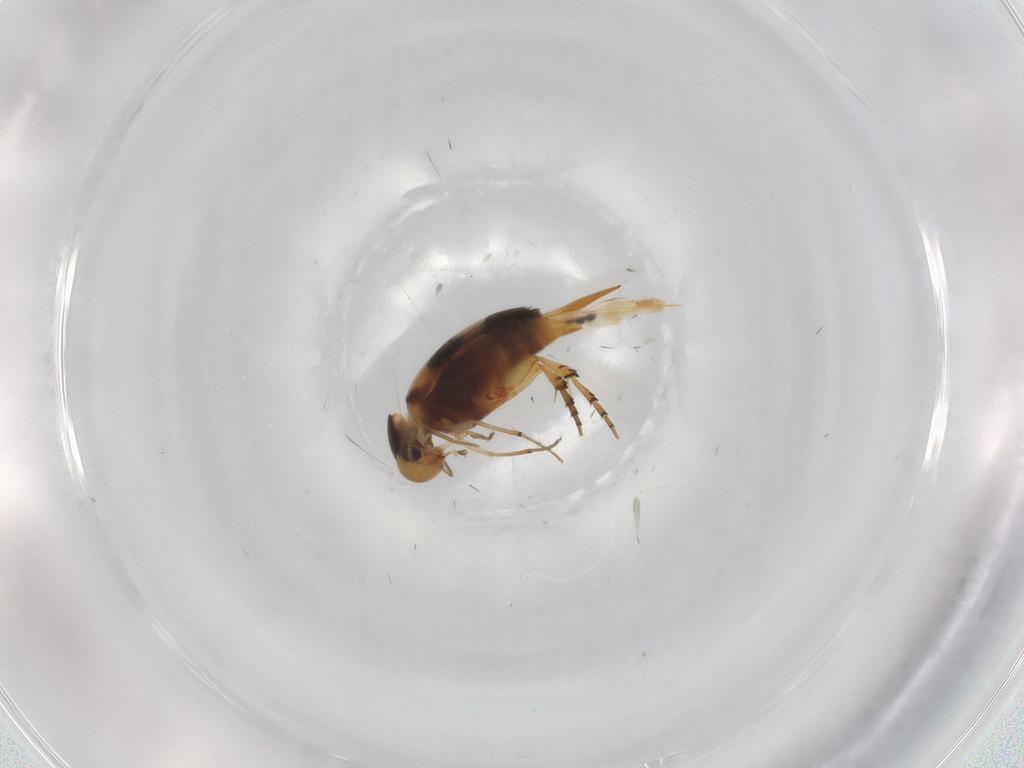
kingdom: Animalia
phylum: Arthropoda
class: Insecta
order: Coleoptera
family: Mordellidae
